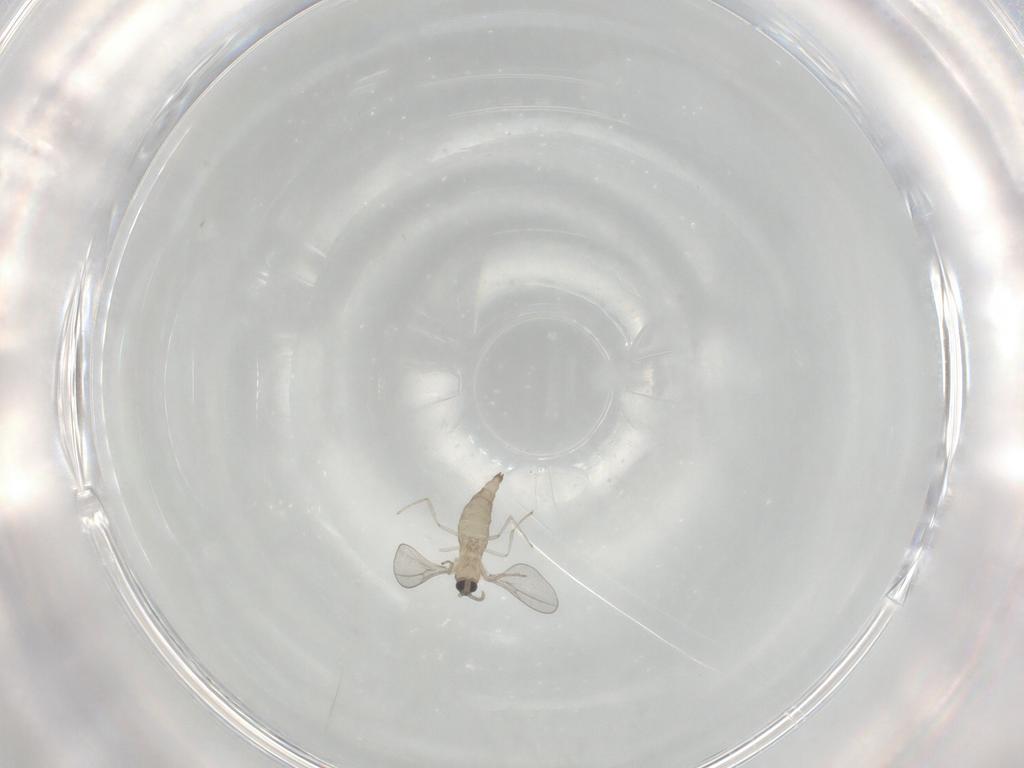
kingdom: Animalia
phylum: Arthropoda
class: Insecta
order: Diptera
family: Cecidomyiidae
